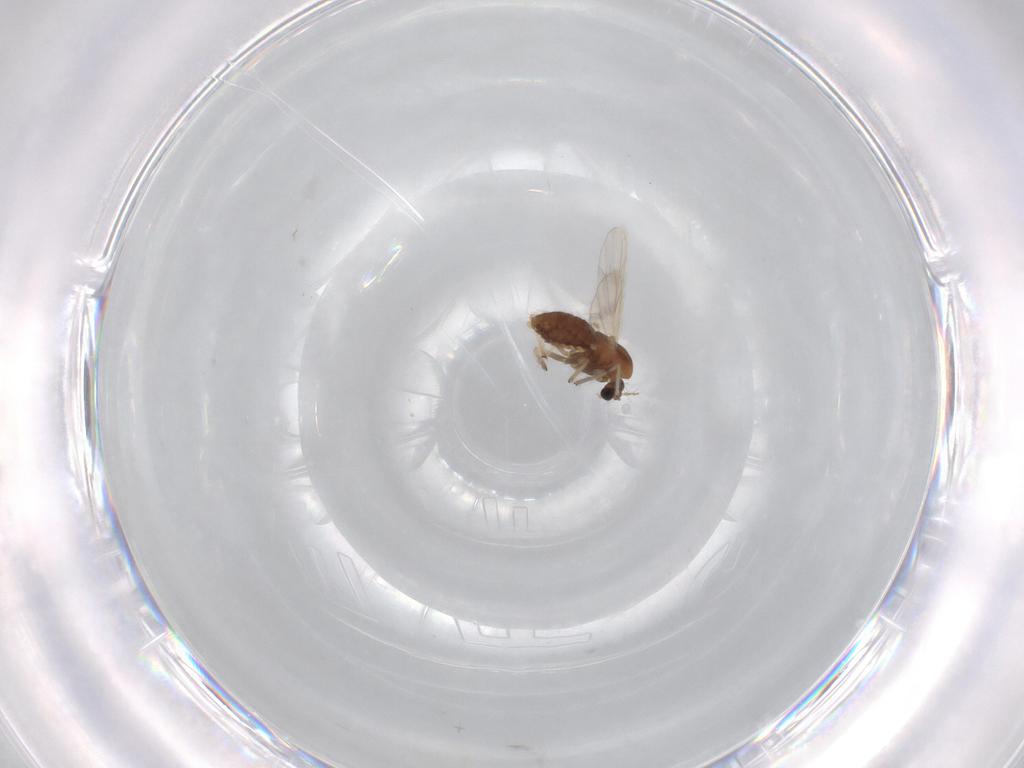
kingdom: Animalia
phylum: Arthropoda
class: Insecta
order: Diptera
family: Chironomidae
